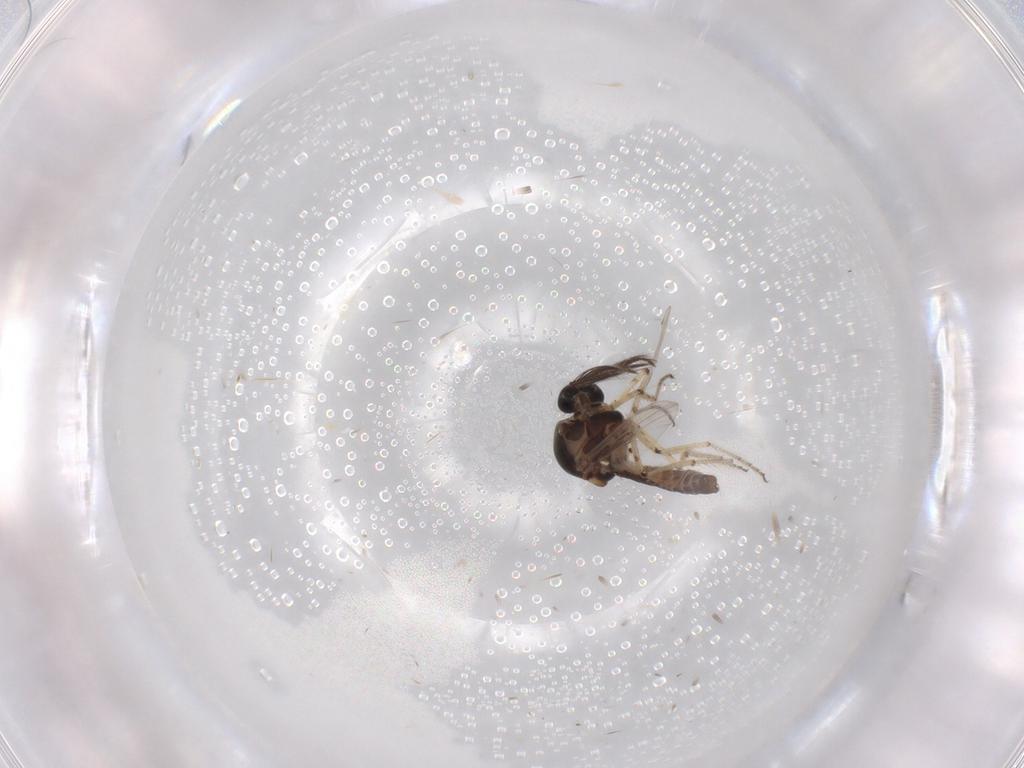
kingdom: Animalia
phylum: Arthropoda
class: Insecta
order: Diptera
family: Ceratopogonidae
